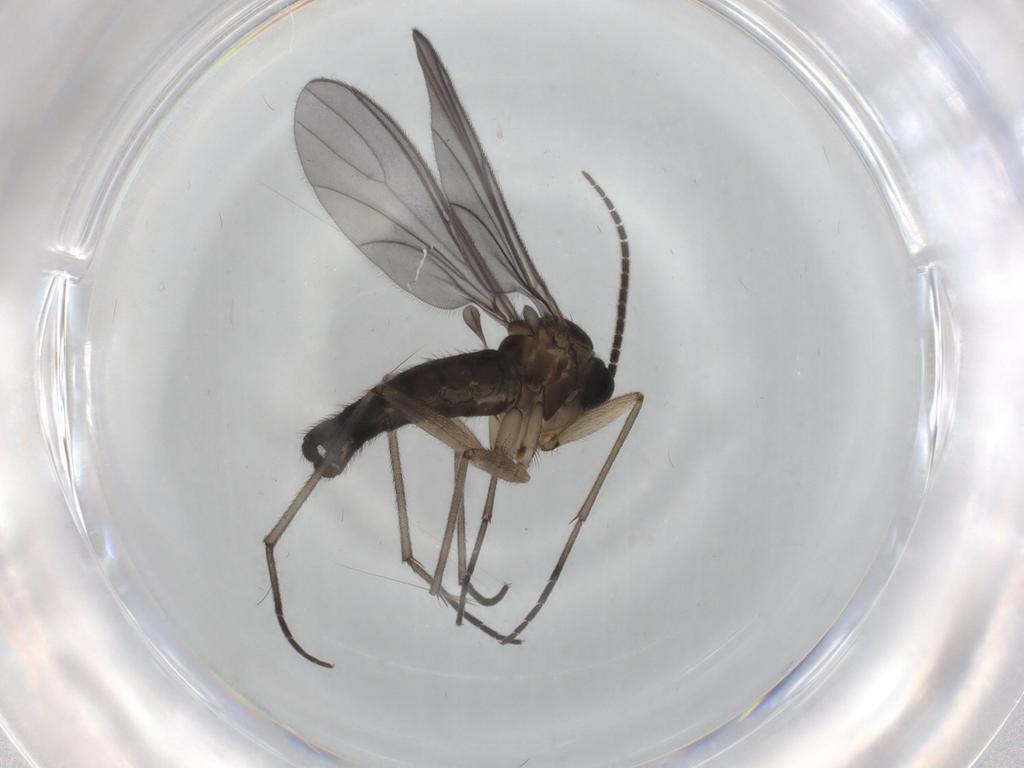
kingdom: Animalia
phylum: Arthropoda
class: Insecta
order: Diptera
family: Sciaridae
